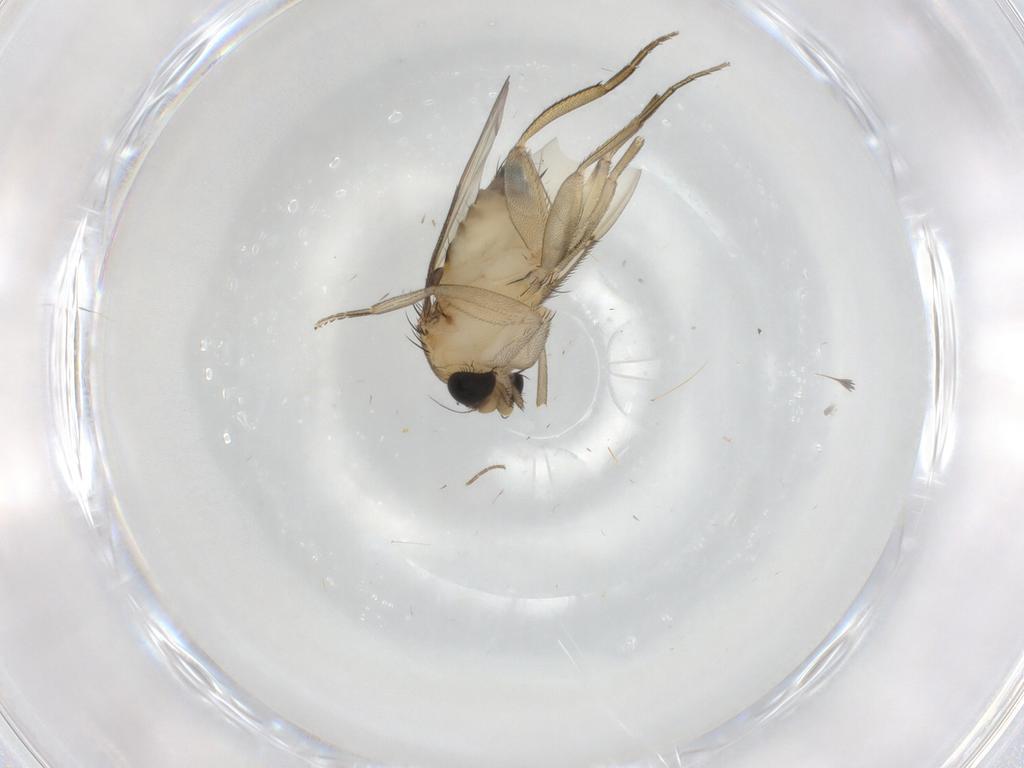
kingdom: Animalia
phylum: Arthropoda
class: Insecta
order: Diptera
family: Phoridae
